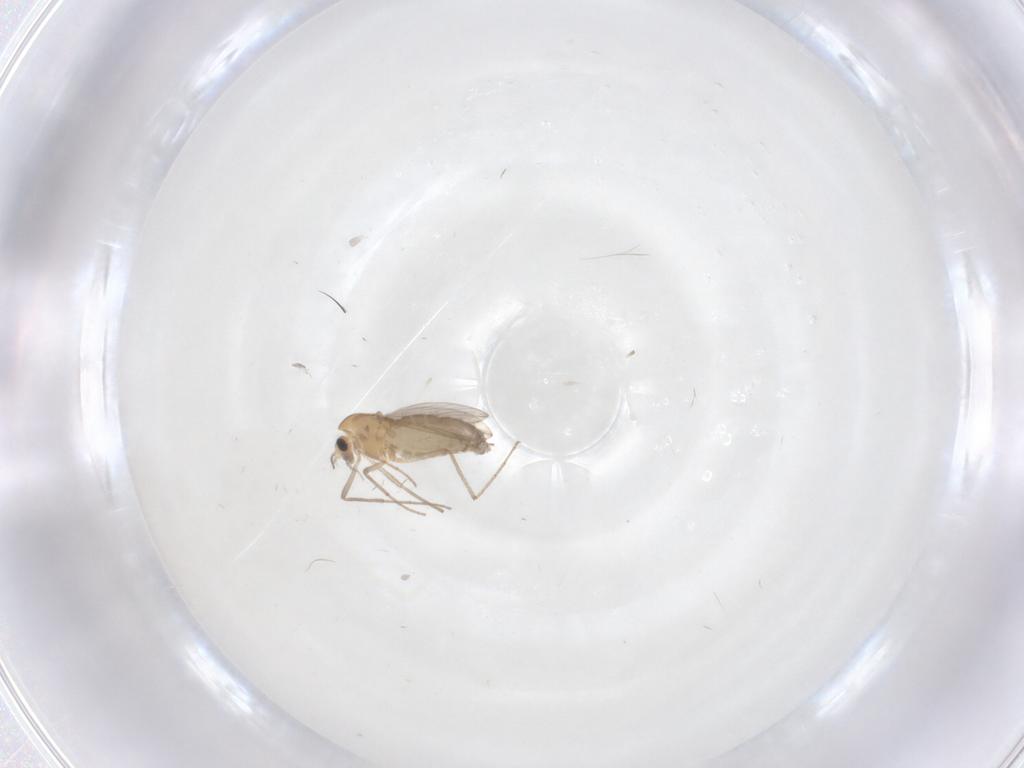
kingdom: Animalia
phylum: Arthropoda
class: Insecta
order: Diptera
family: Chironomidae
